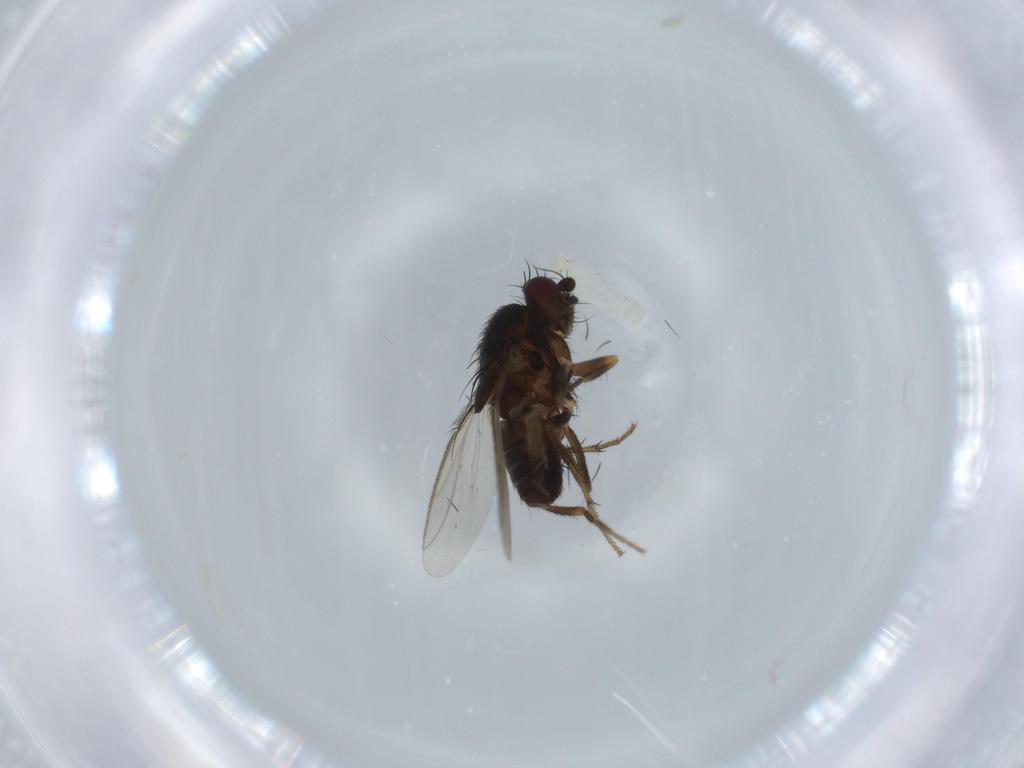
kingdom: Animalia
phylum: Arthropoda
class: Insecta
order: Diptera
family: Sphaeroceridae
